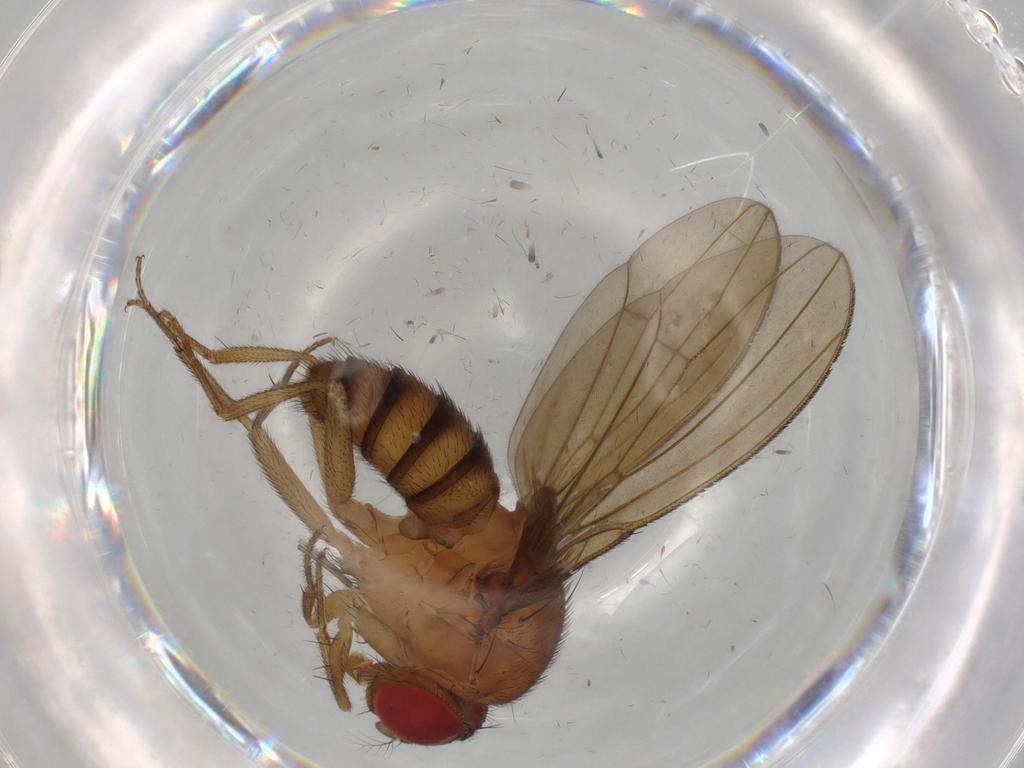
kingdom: Animalia
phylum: Arthropoda
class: Insecta
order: Diptera
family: Drosophilidae
